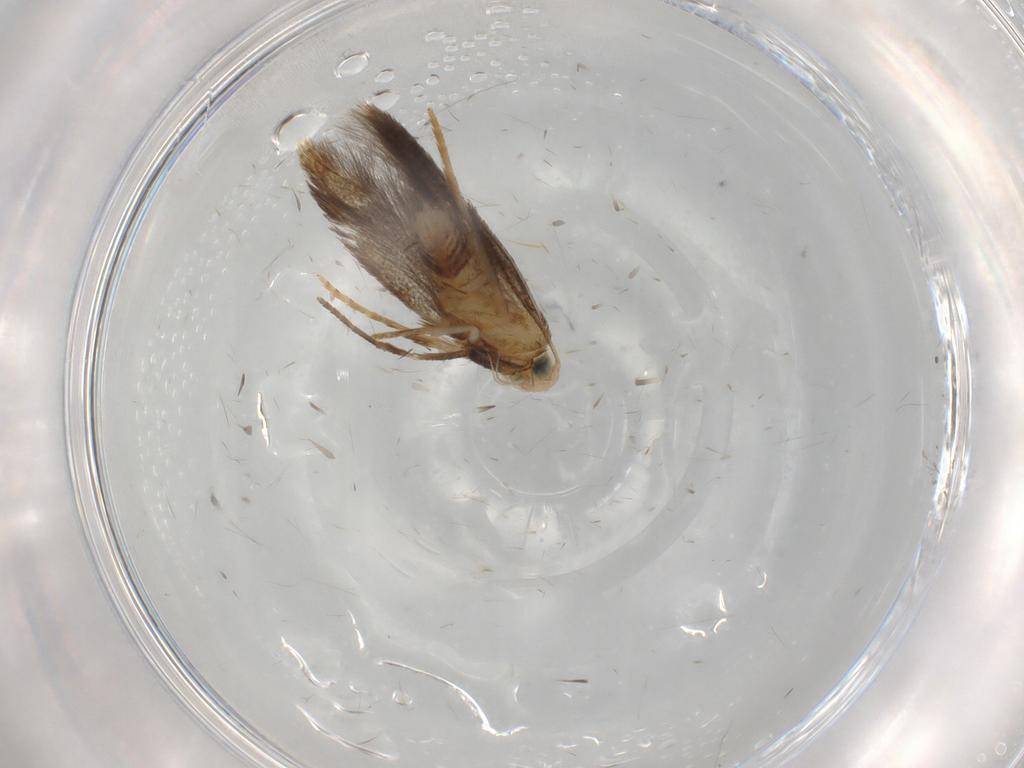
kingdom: Animalia
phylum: Arthropoda
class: Insecta
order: Lepidoptera
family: Tischeriidae
